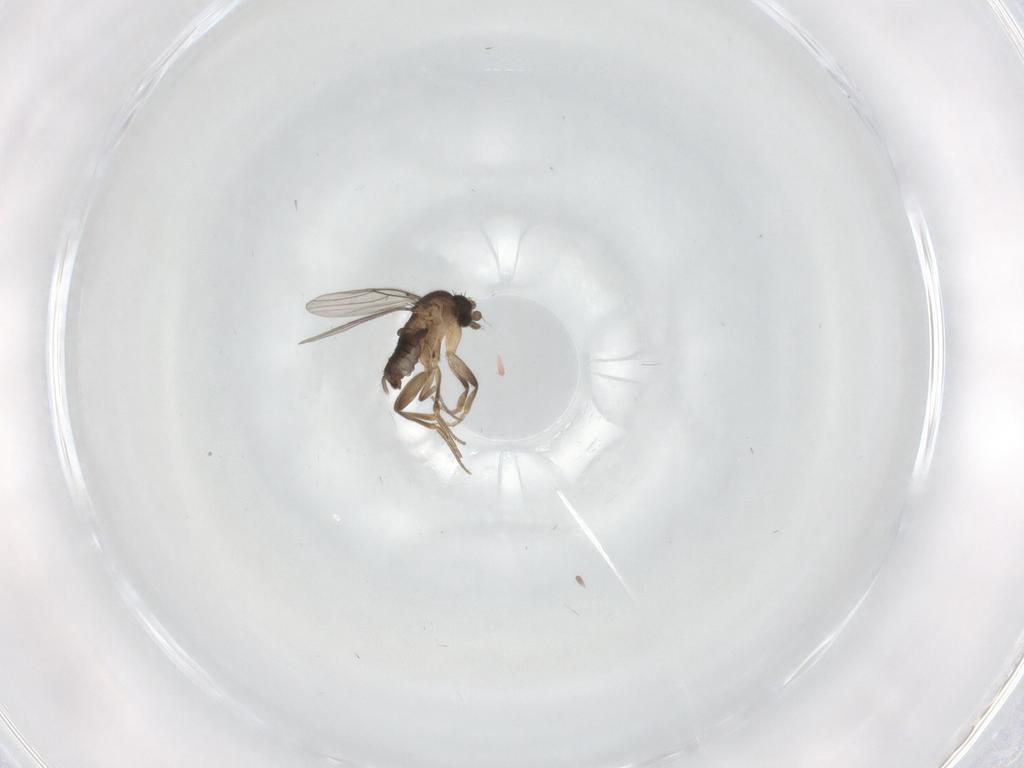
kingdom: Animalia
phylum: Arthropoda
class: Insecta
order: Diptera
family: Phoridae
